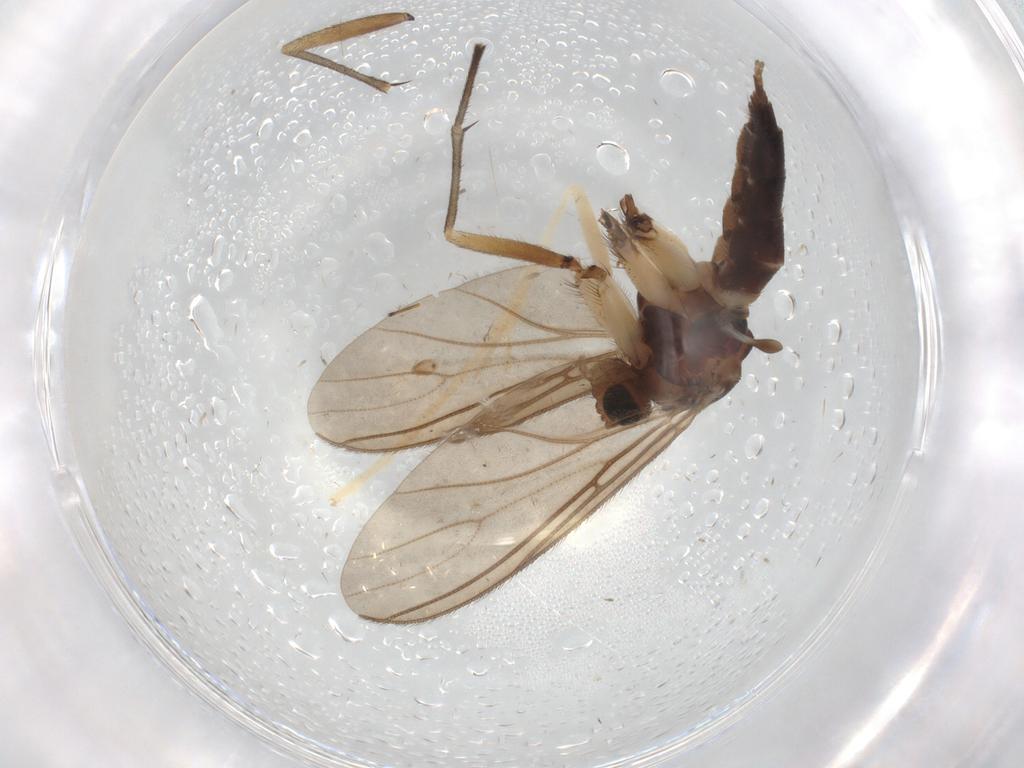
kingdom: Animalia
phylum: Arthropoda
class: Insecta
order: Diptera
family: Sciaridae
